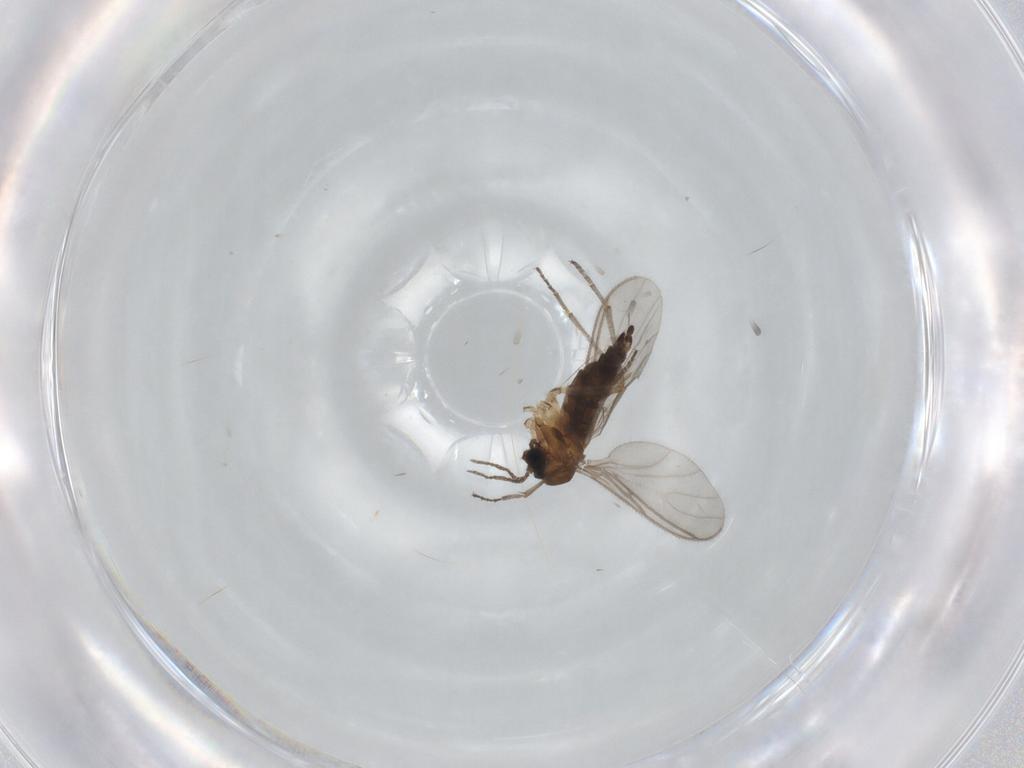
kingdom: Animalia
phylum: Arthropoda
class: Insecta
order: Diptera
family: Sciaridae
